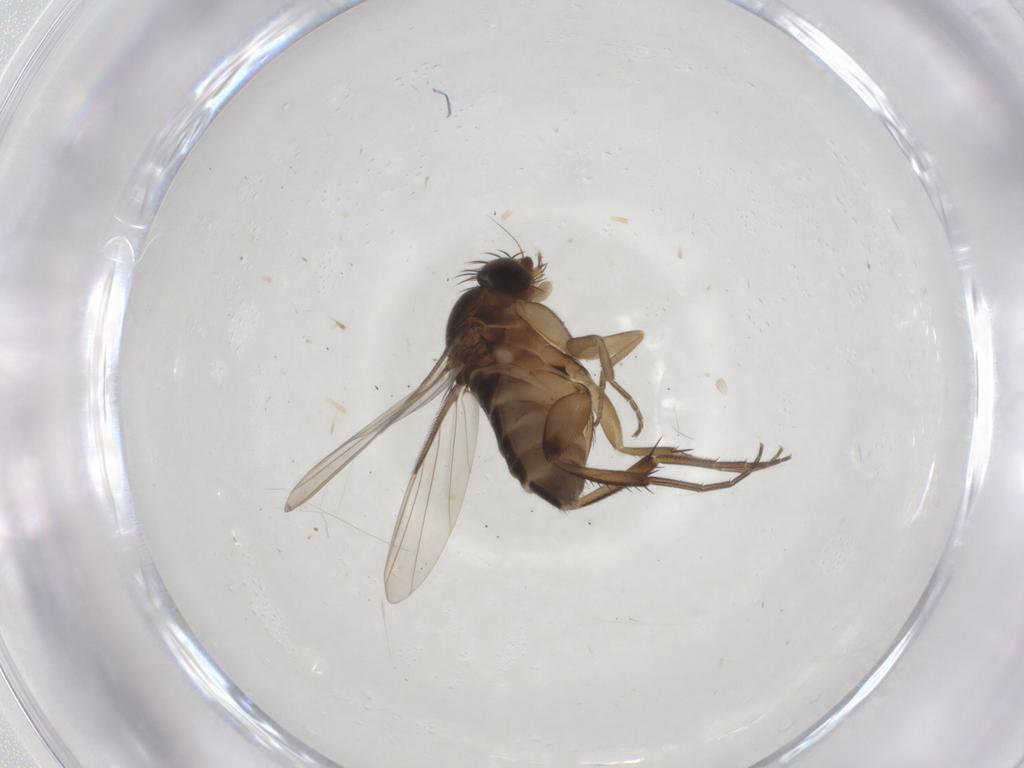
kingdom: Animalia
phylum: Arthropoda
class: Insecta
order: Diptera
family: Phoridae
